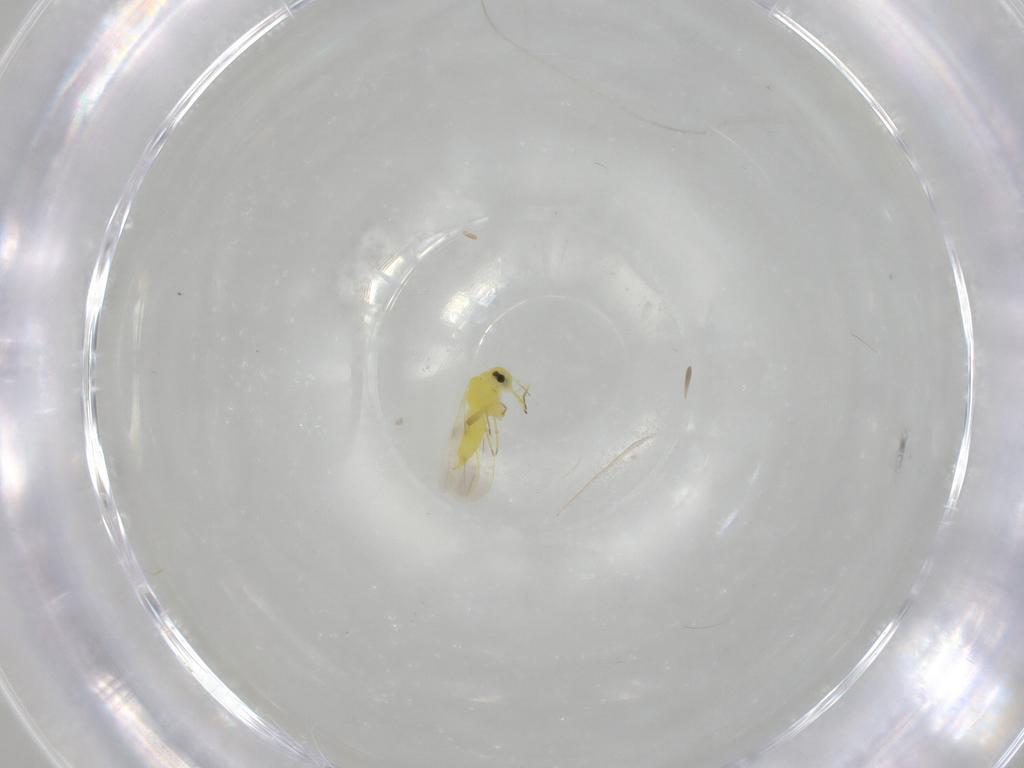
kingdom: Animalia
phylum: Arthropoda
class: Insecta
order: Hemiptera
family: Aleyrodidae
